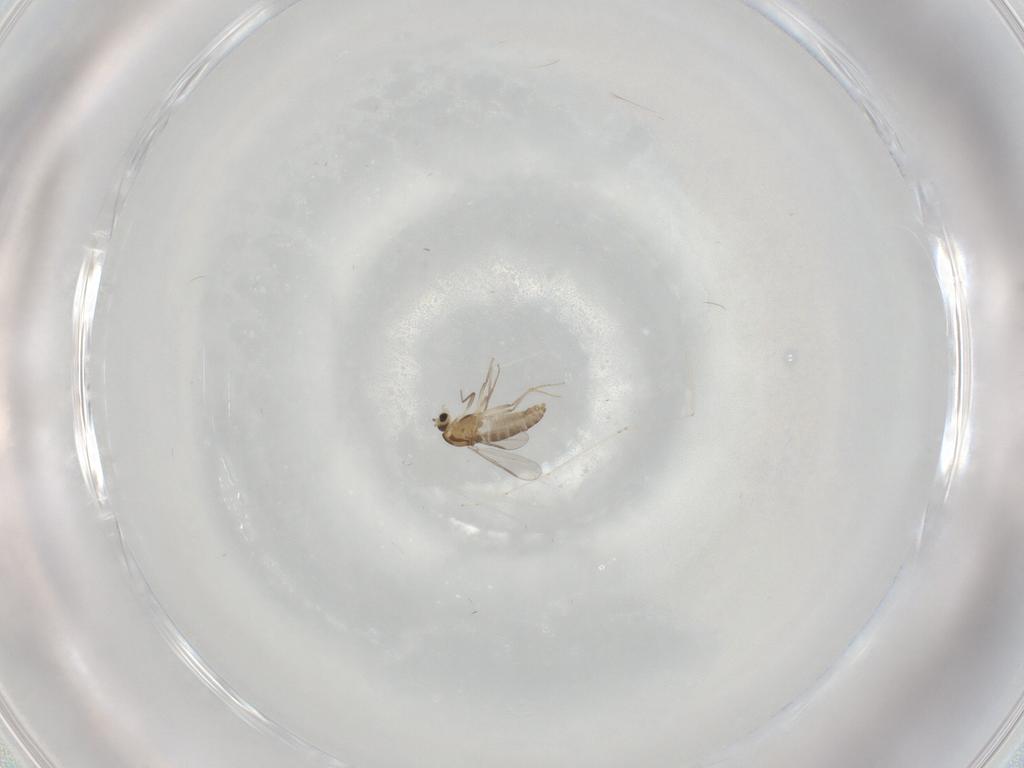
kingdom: Animalia
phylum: Arthropoda
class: Insecta
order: Diptera
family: Chironomidae
